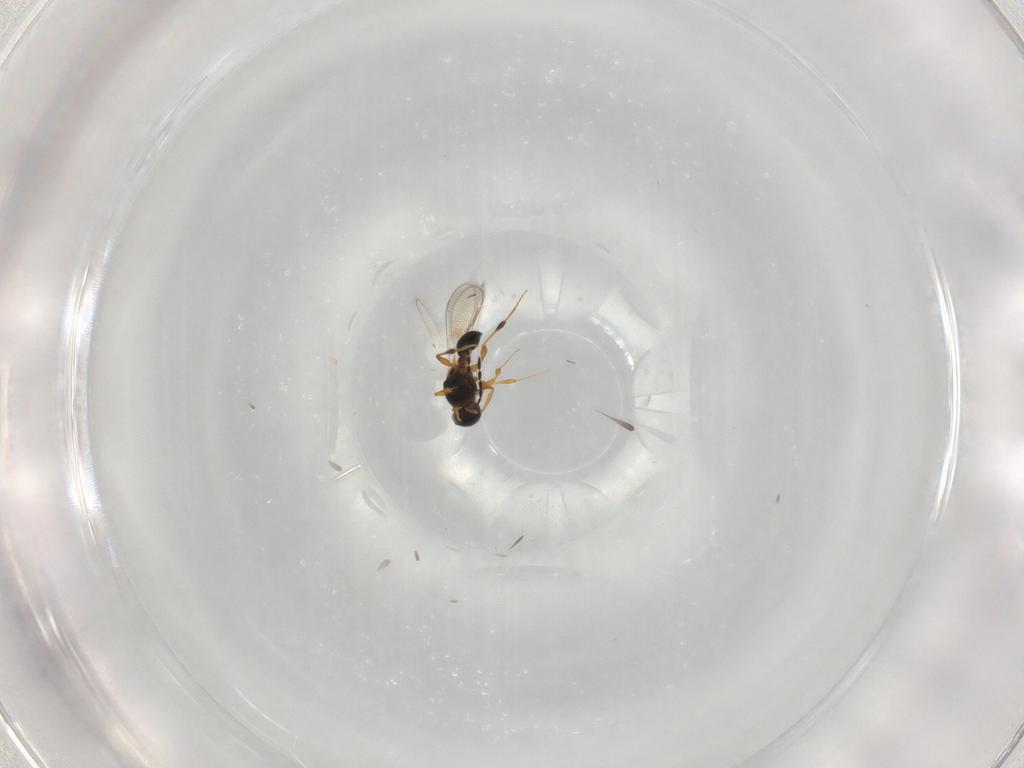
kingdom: Animalia
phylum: Arthropoda
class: Insecta
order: Hymenoptera
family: Platygastridae
